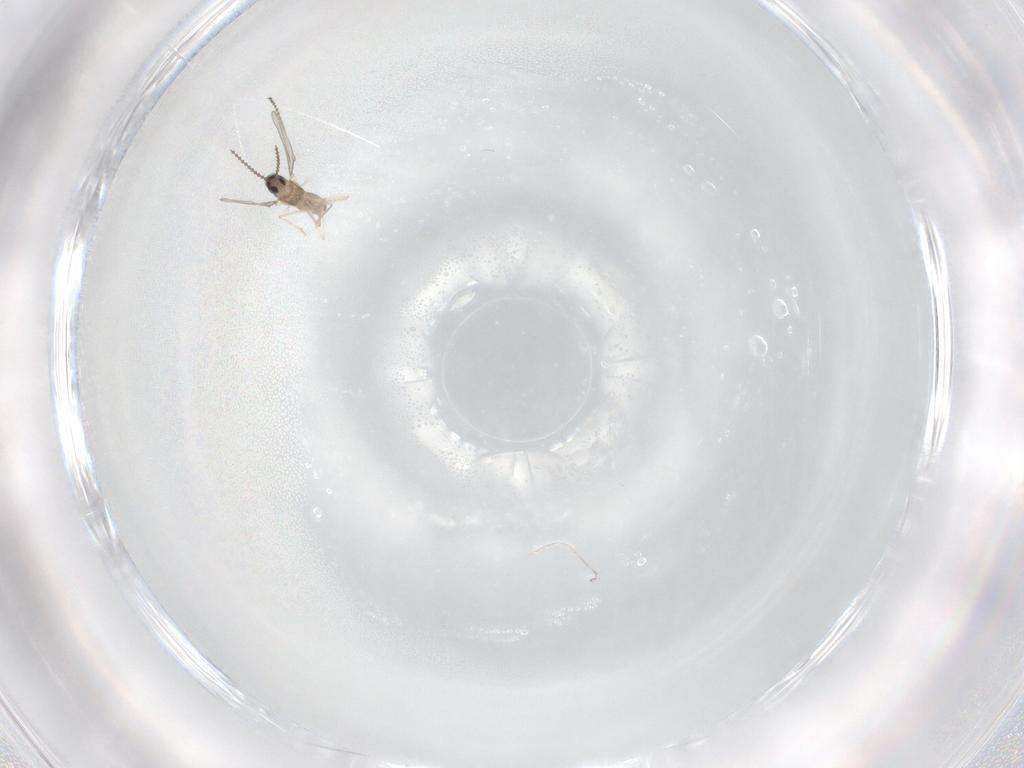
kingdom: Animalia
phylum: Arthropoda
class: Insecta
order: Diptera
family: Cecidomyiidae
